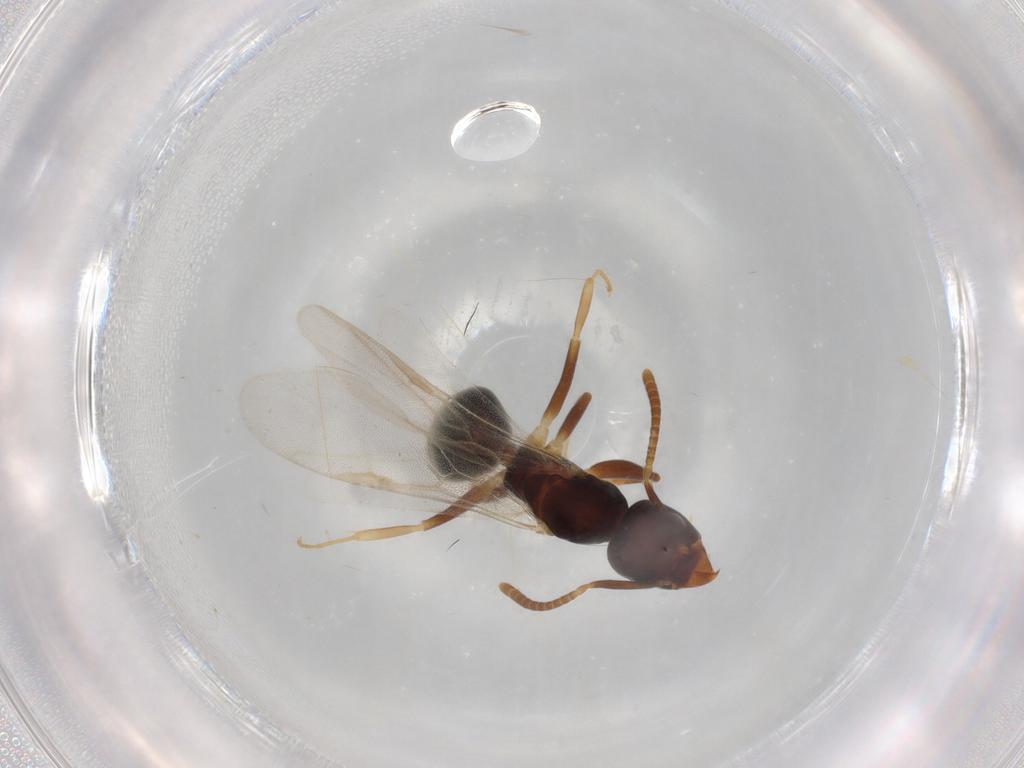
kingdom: Animalia
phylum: Arthropoda
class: Insecta
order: Hymenoptera
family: Formicidae
